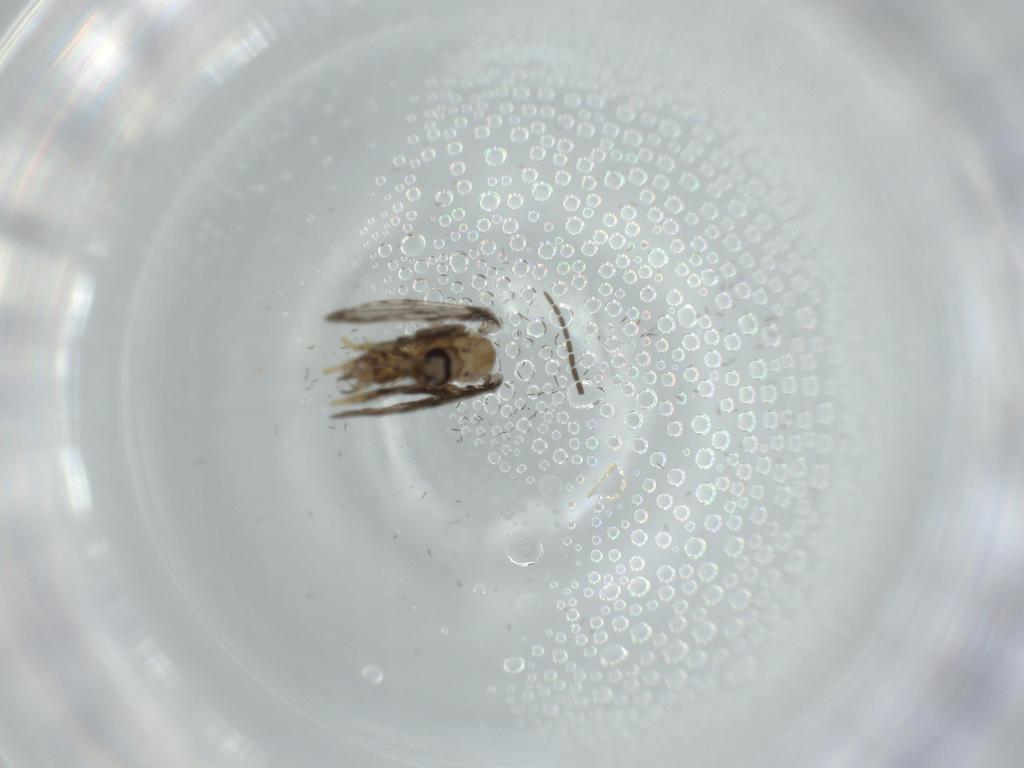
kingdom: Animalia
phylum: Arthropoda
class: Insecta
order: Diptera
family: Psychodidae
